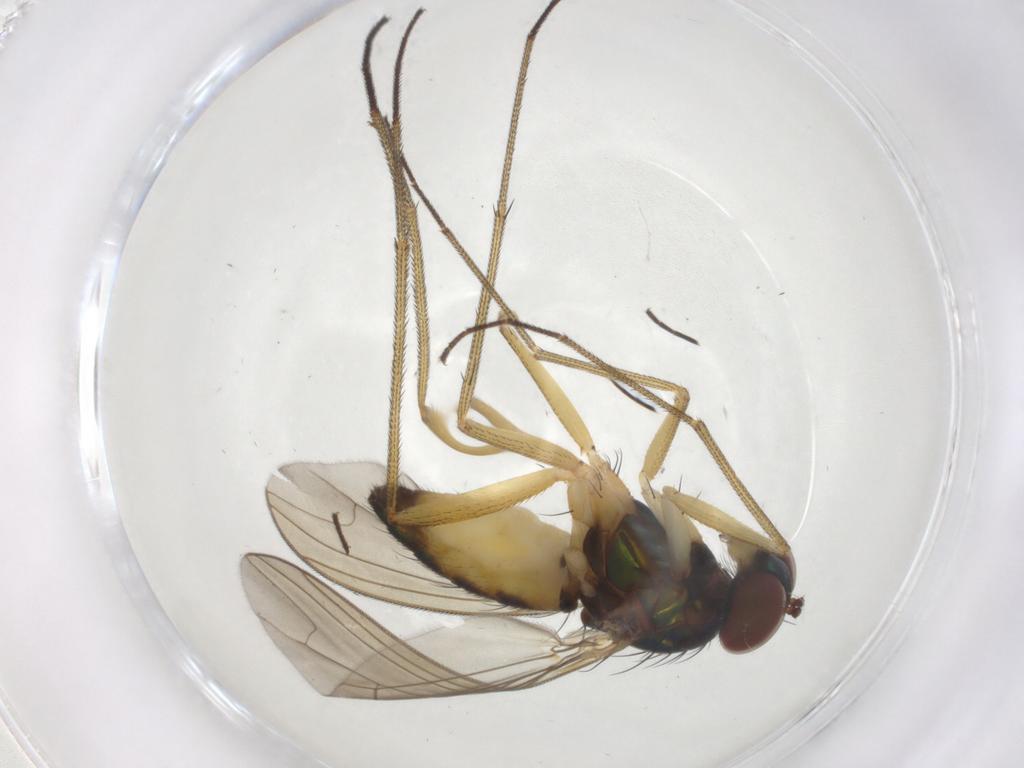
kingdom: Animalia
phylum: Arthropoda
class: Insecta
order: Diptera
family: Dolichopodidae
